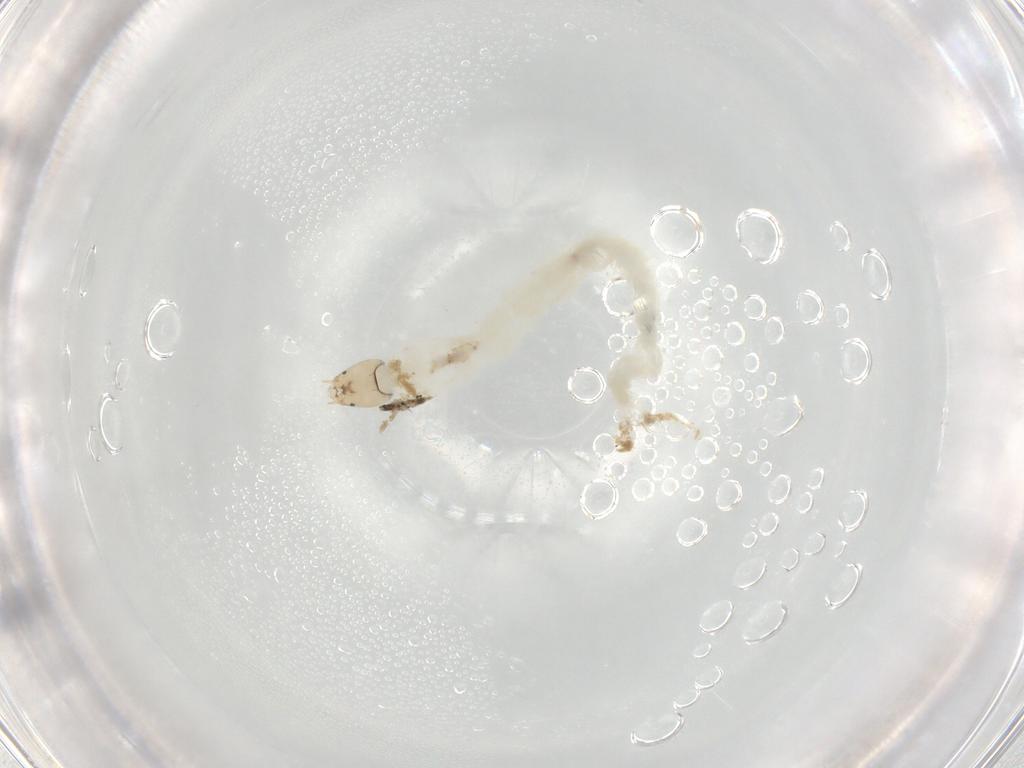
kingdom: Animalia
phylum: Arthropoda
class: Insecta
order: Diptera
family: Chironomidae
